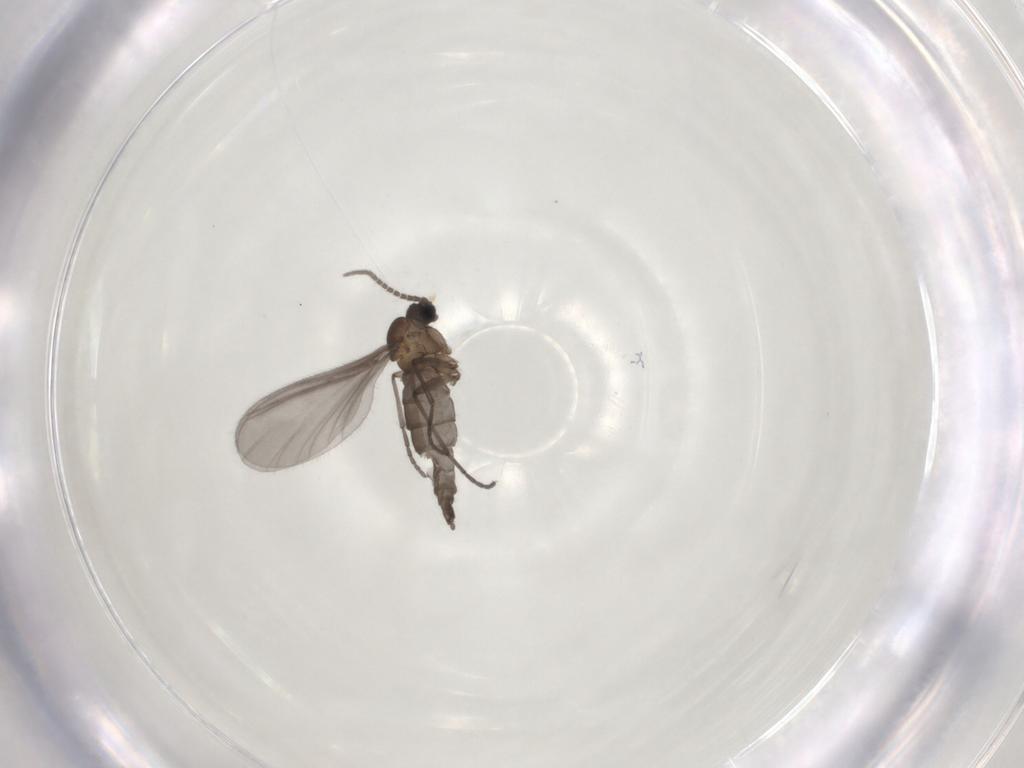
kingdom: Animalia
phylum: Arthropoda
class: Insecta
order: Diptera
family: Sciaridae
